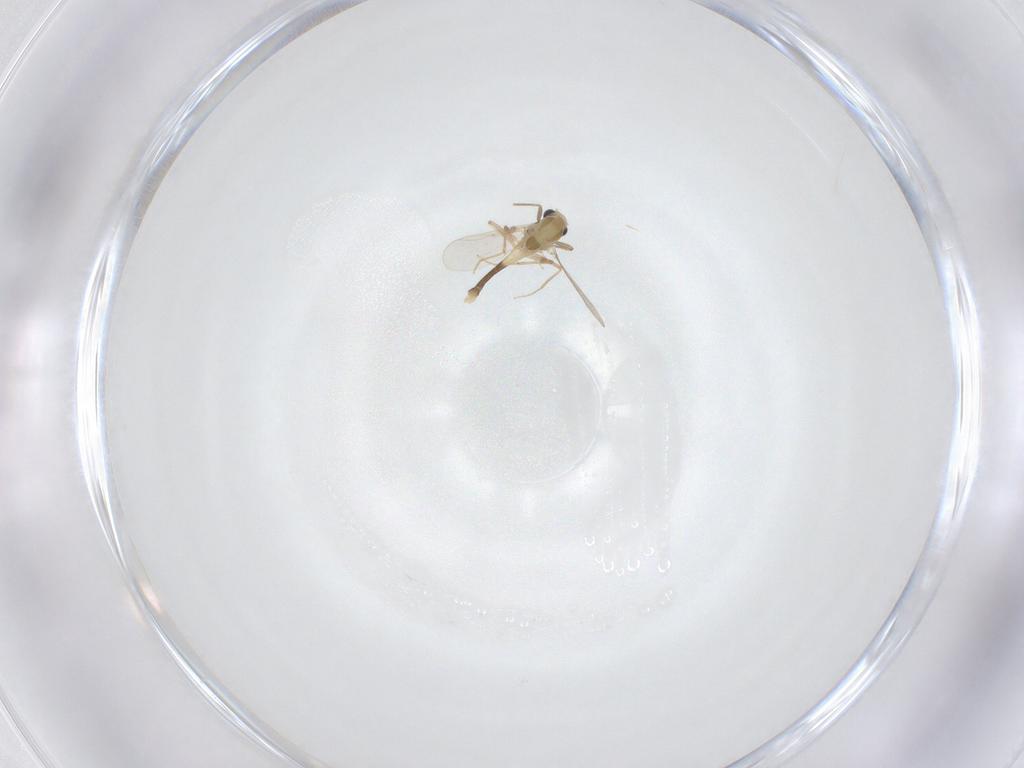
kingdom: Animalia
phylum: Arthropoda
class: Insecta
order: Diptera
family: Chironomidae
